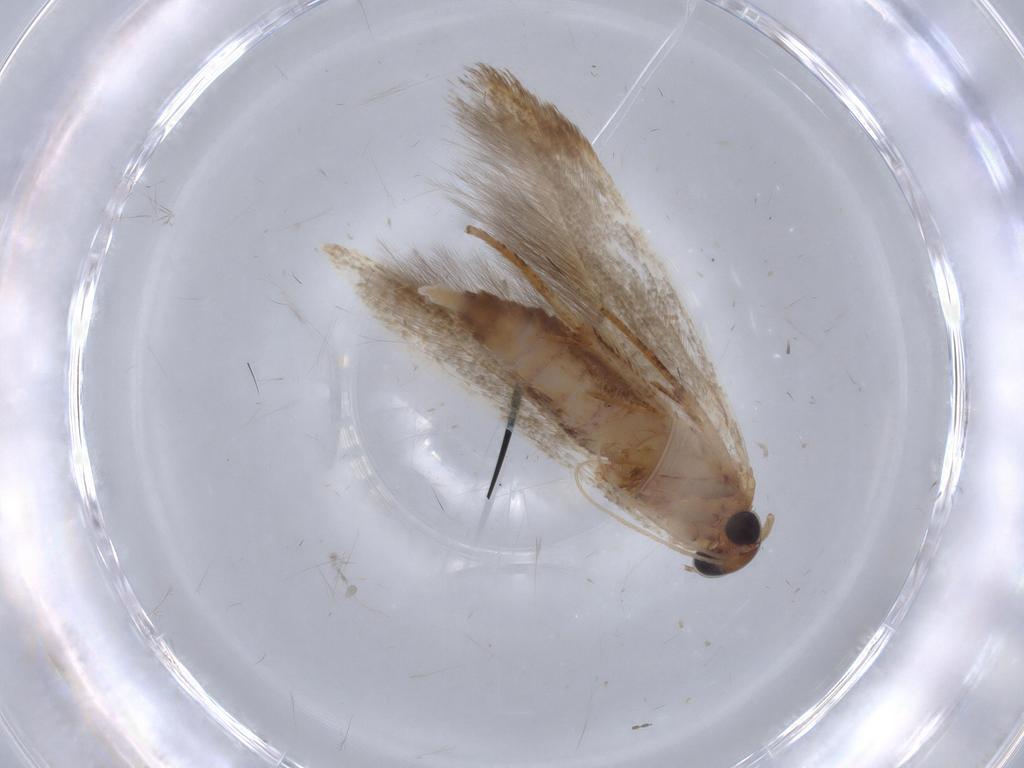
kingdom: Animalia
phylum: Arthropoda
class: Insecta
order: Lepidoptera
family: Blastobasidae
